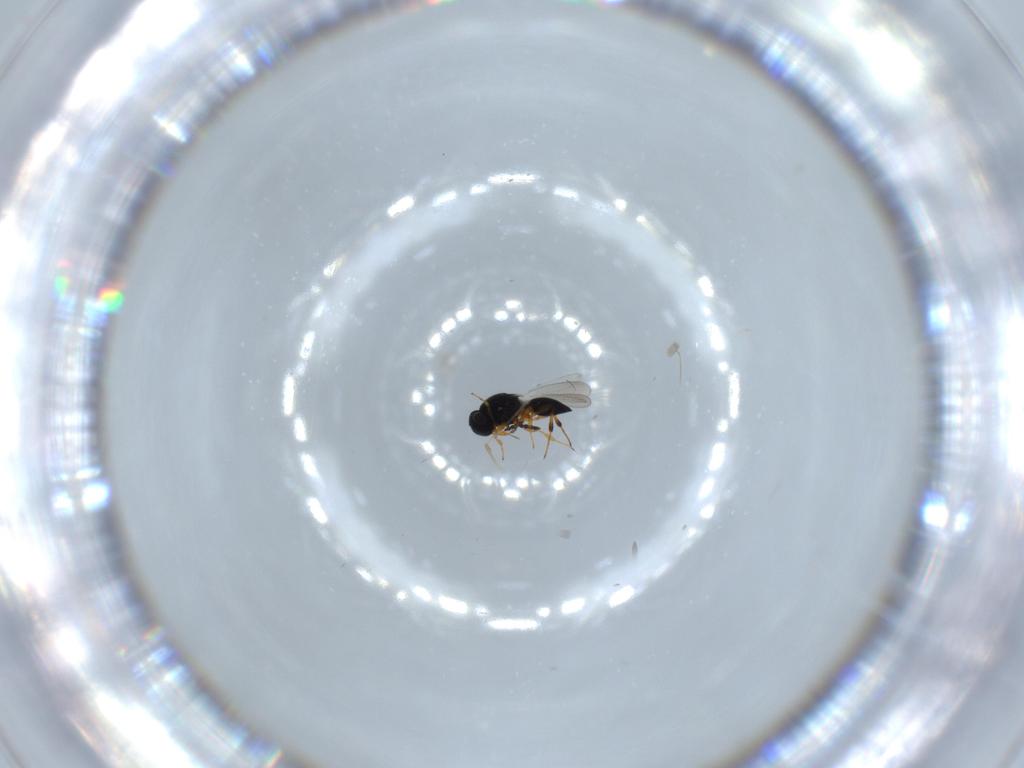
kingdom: Animalia
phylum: Arthropoda
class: Insecta
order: Hymenoptera
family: Platygastridae
